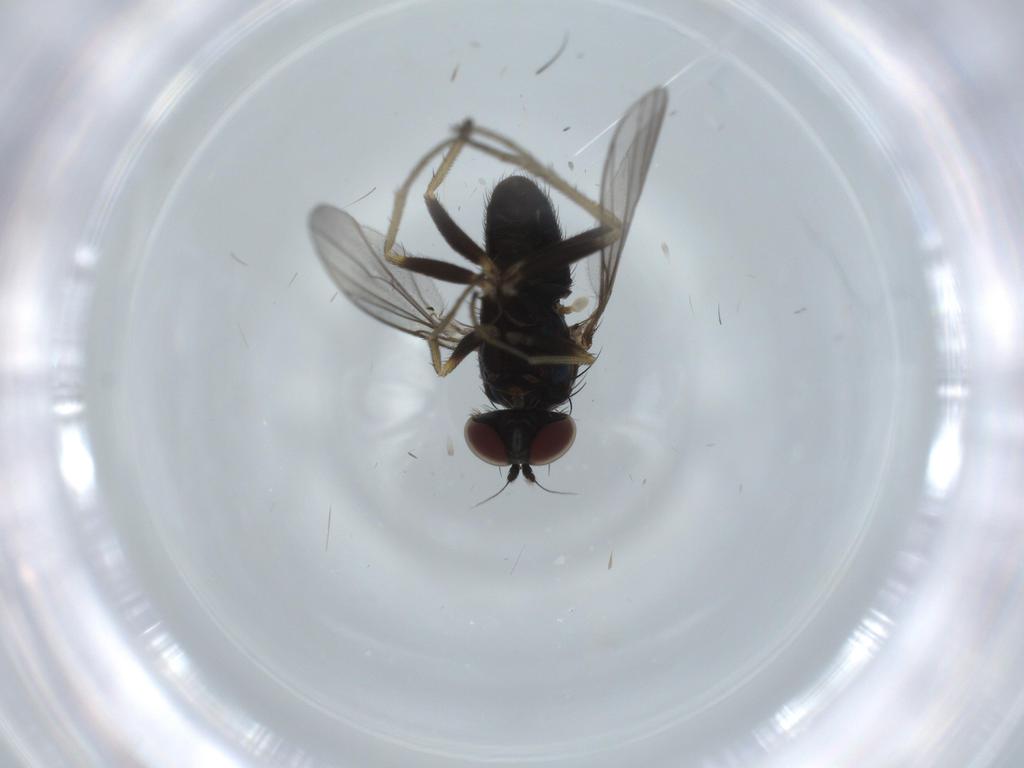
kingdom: Animalia
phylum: Arthropoda
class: Insecta
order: Diptera
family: Dolichopodidae
